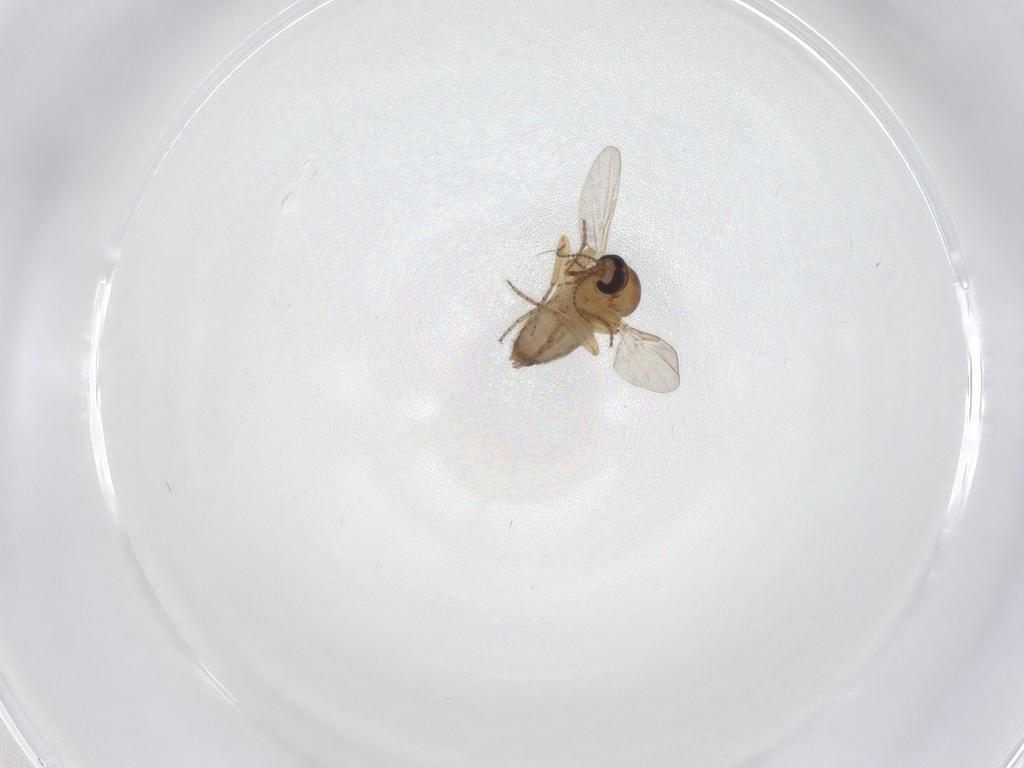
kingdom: Animalia
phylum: Arthropoda
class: Insecta
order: Diptera
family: Ceratopogonidae
